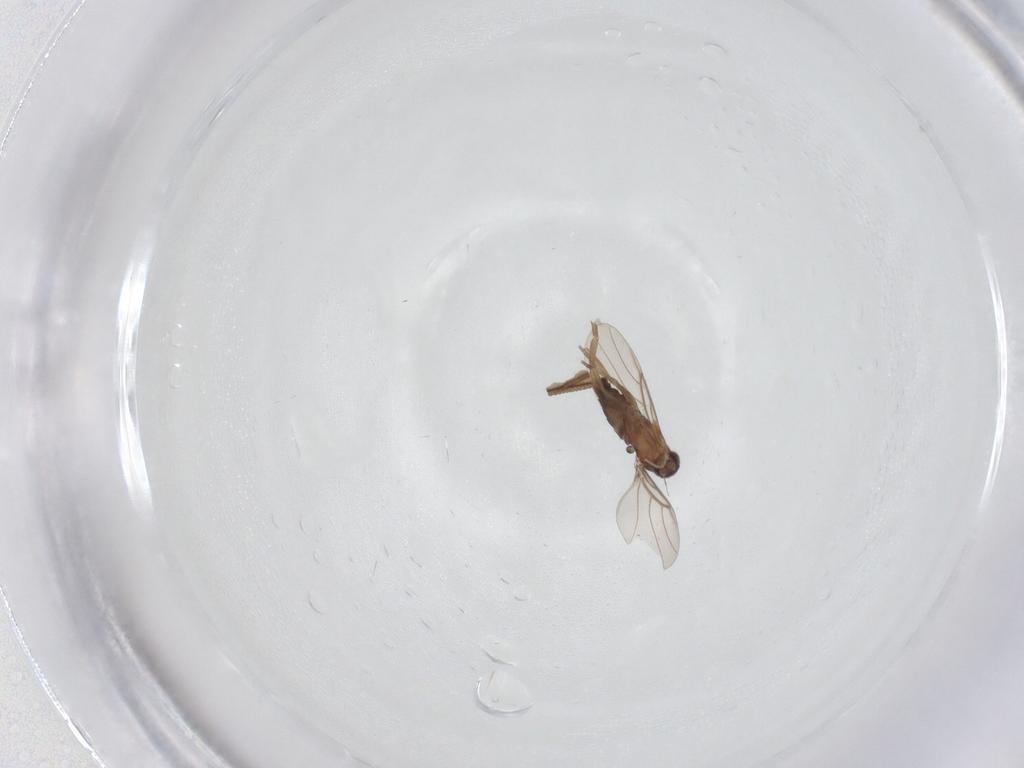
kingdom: Animalia
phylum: Arthropoda
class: Insecta
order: Diptera
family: Phoridae
